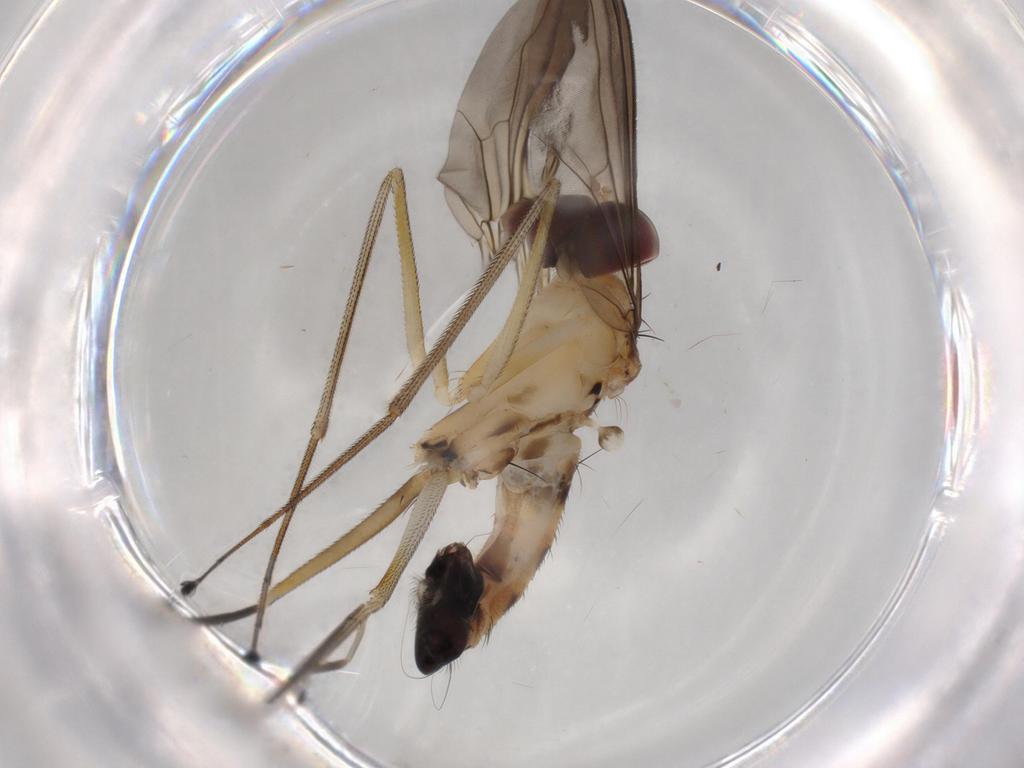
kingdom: Animalia
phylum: Arthropoda
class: Insecta
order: Diptera
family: Dolichopodidae
